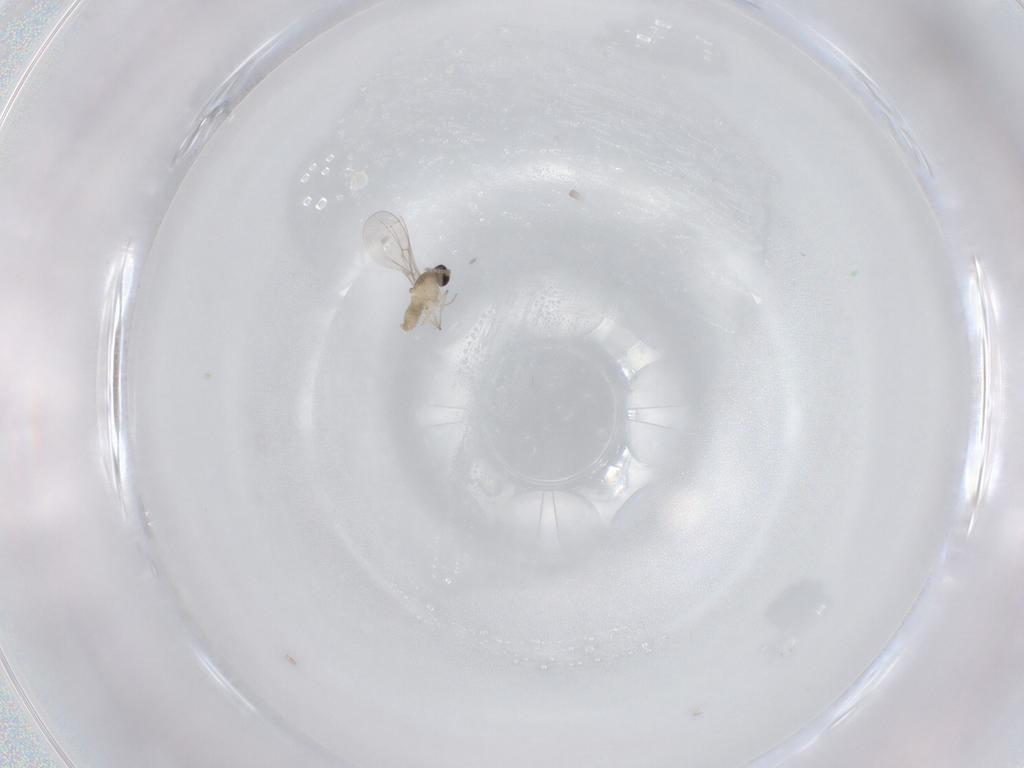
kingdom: Animalia
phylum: Arthropoda
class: Insecta
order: Diptera
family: Cecidomyiidae
